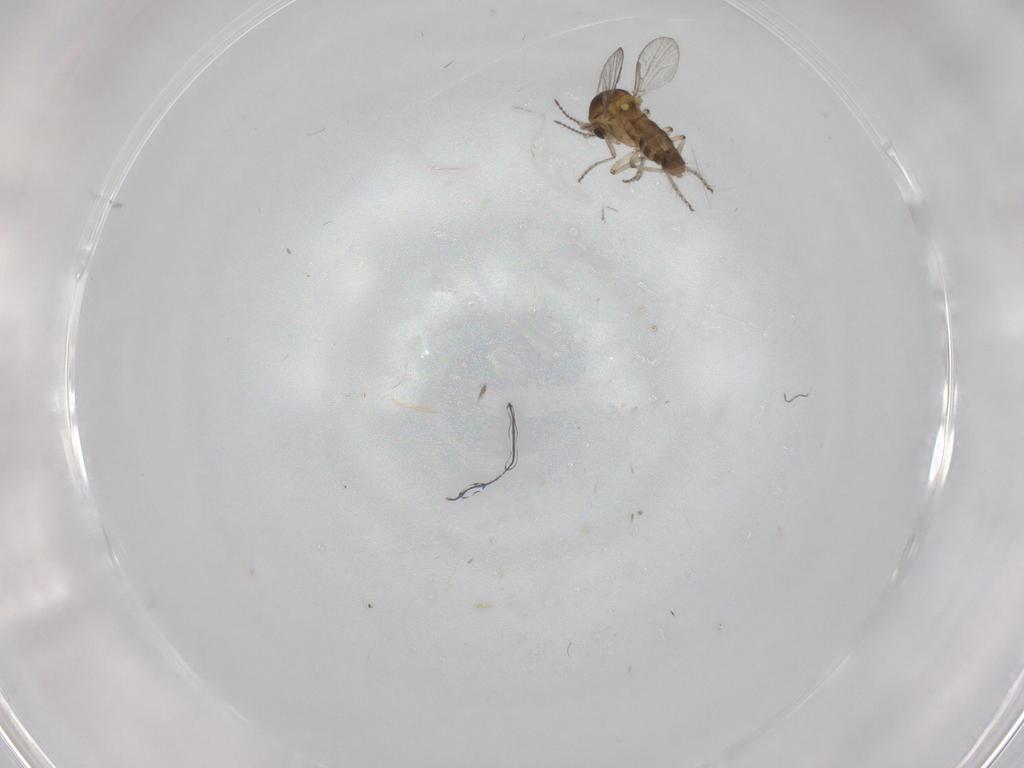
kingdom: Animalia
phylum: Arthropoda
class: Insecta
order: Diptera
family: Ceratopogonidae
